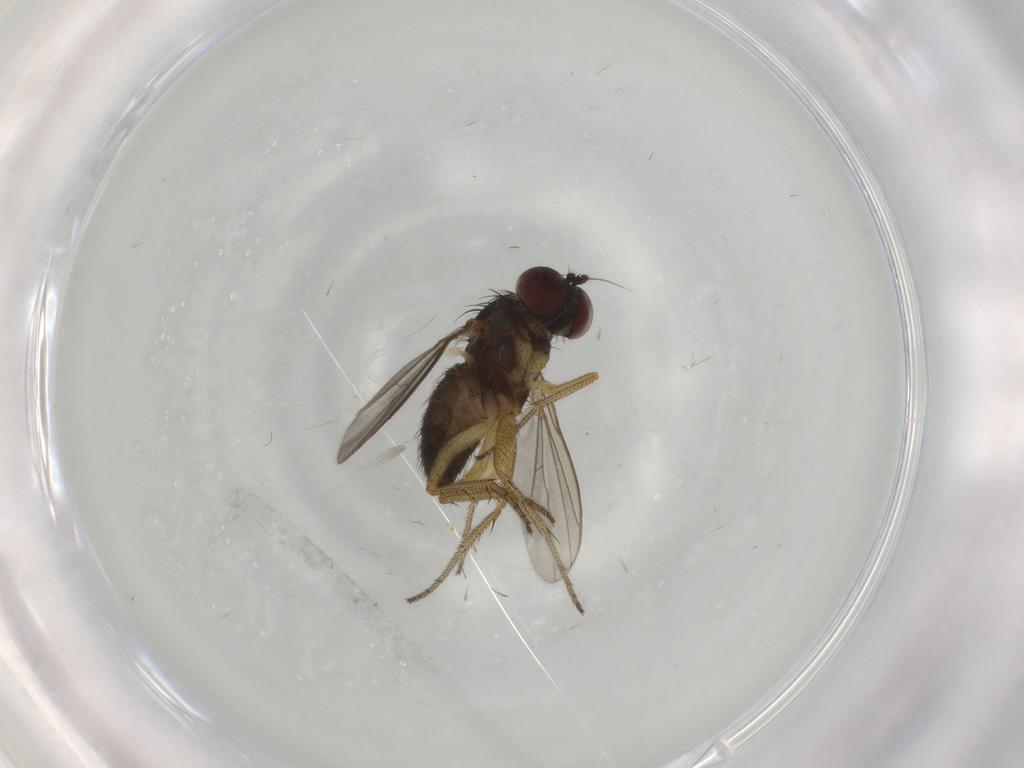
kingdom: Animalia
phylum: Arthropoda
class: Insecta
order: Diptera
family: Dolichopodidae
